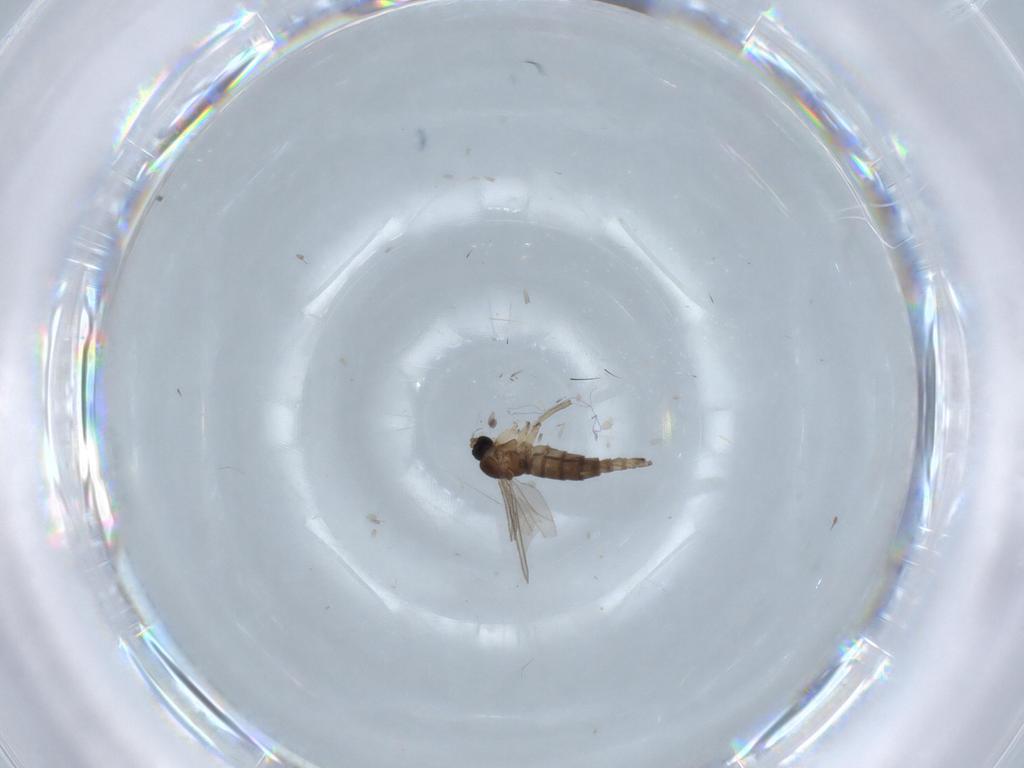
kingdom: Animalia
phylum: Arthropoda
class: Insecta
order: Diptera
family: Sciaridae
